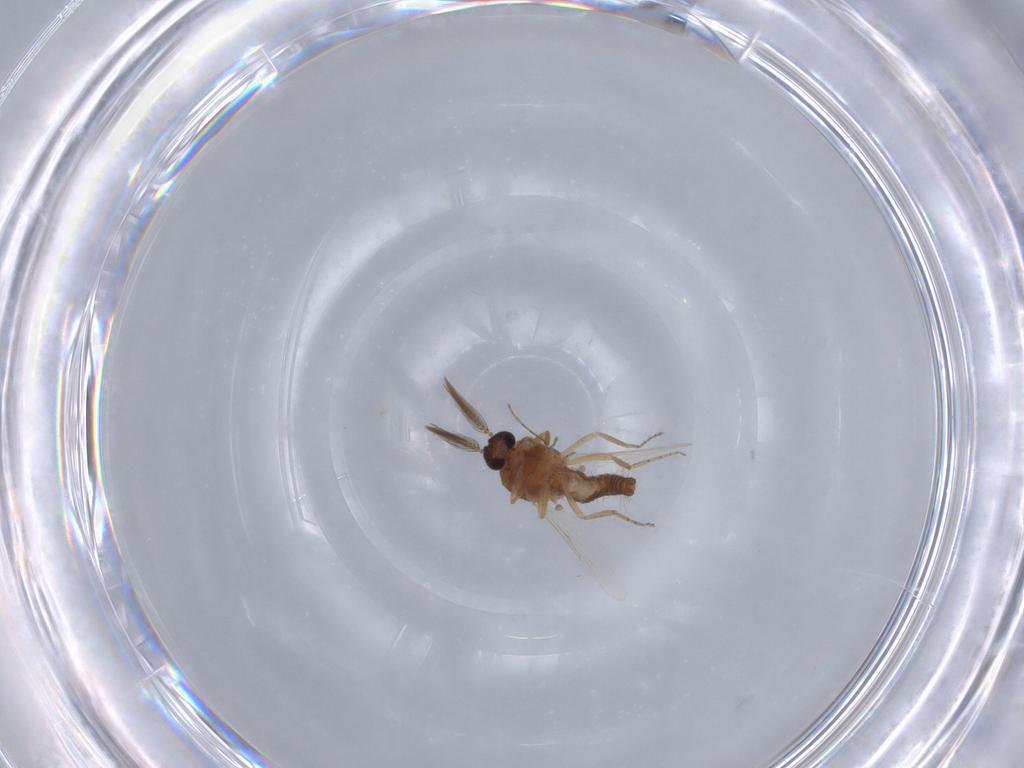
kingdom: Animalia
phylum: Arthropoda
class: Insecta
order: Diptera
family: Ceratopogonidae
